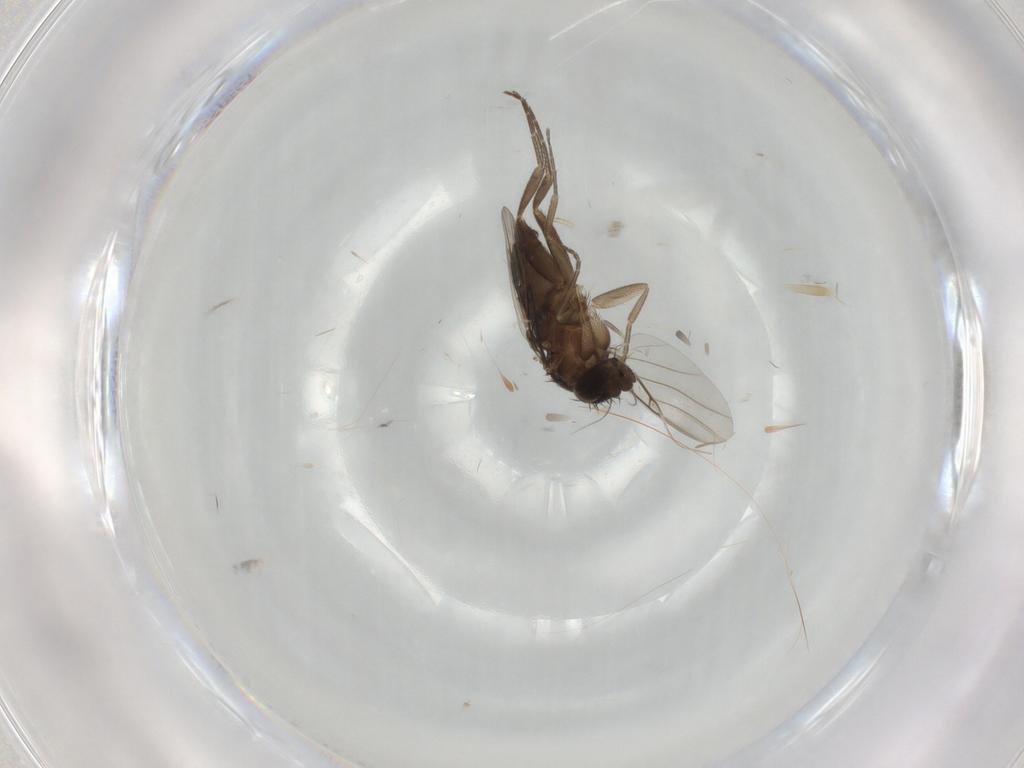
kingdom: Animalia
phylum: Arthropoda
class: Insecta
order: Diptera
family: Phoridae
